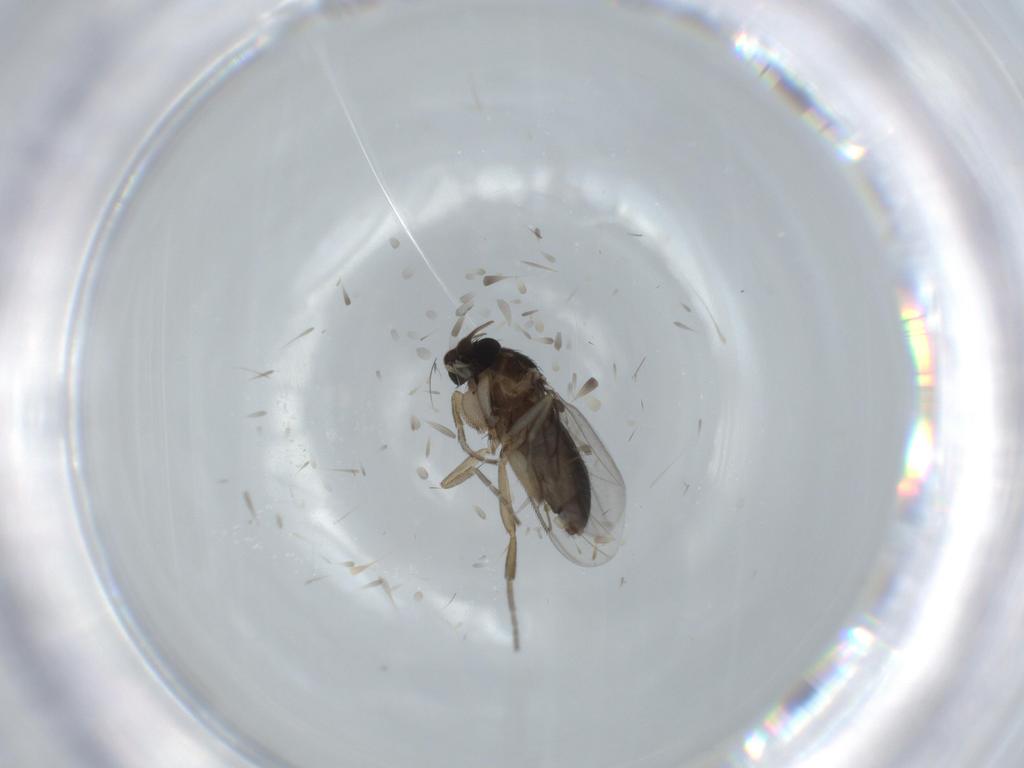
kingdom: Animalia
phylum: Arthropoda
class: Insecta
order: Diptera
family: Phoridae
